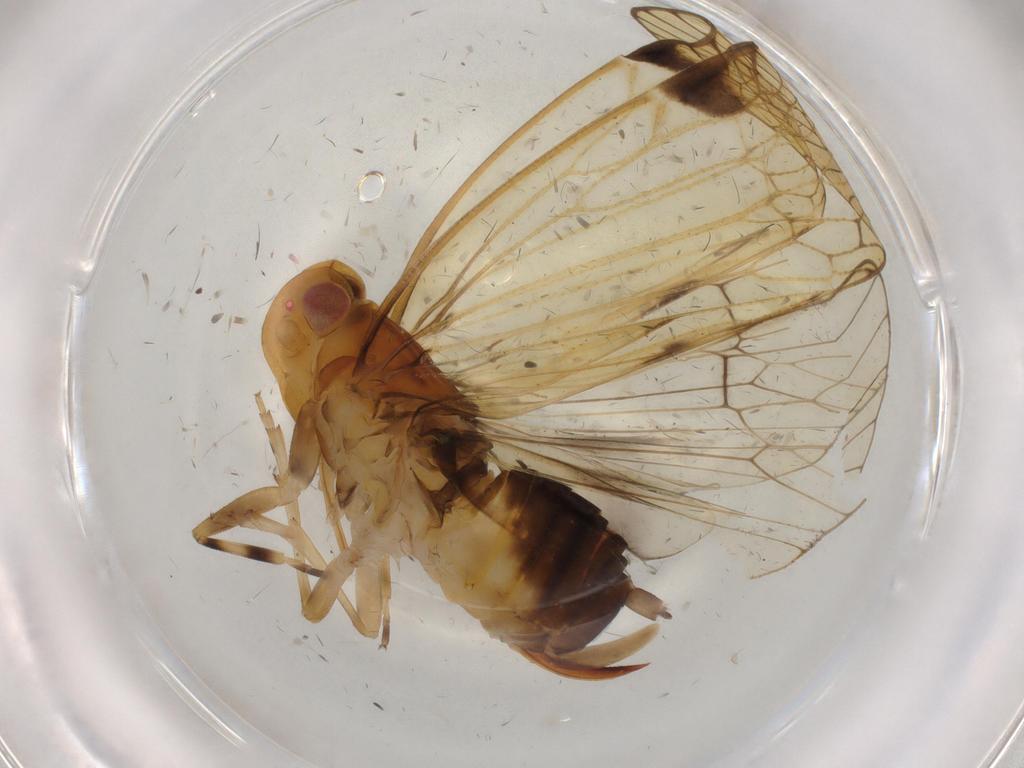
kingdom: Animalia
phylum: Arthropoda
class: Insecta
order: Hemiptera
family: Cixiidae
